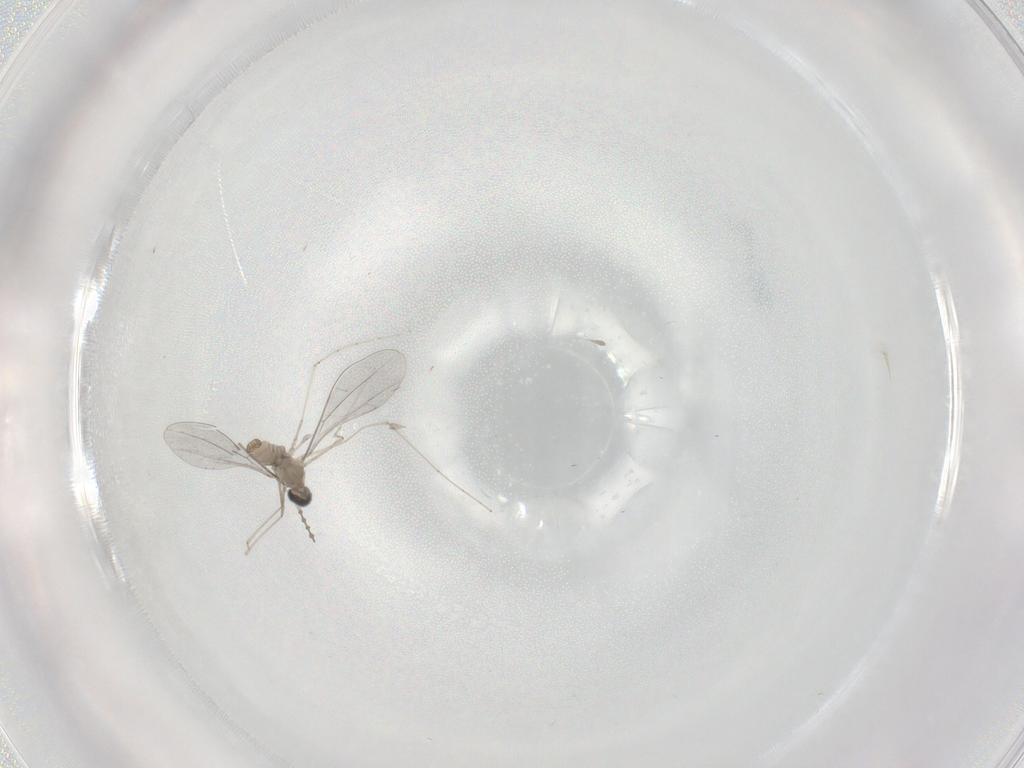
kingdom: Animalia
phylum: Arthropoda
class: Insecta
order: Diptera
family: Cecidomyiidae
